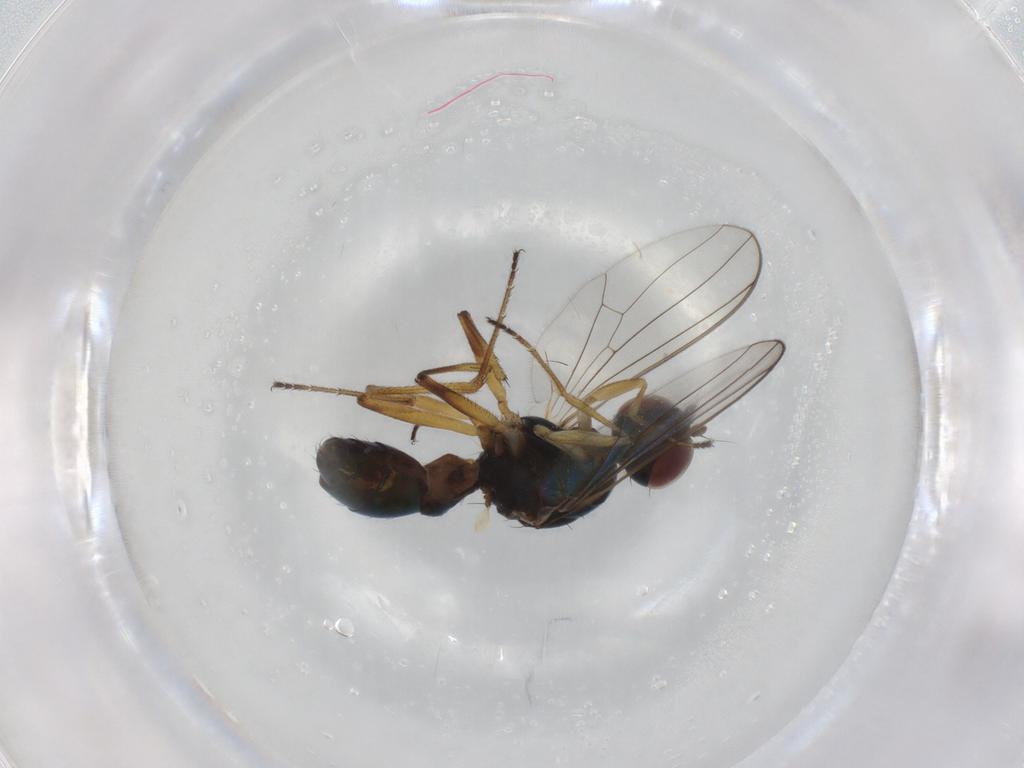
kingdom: Animalia
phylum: Arthropoda
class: Insecta
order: Diptera
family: Sepsidae
